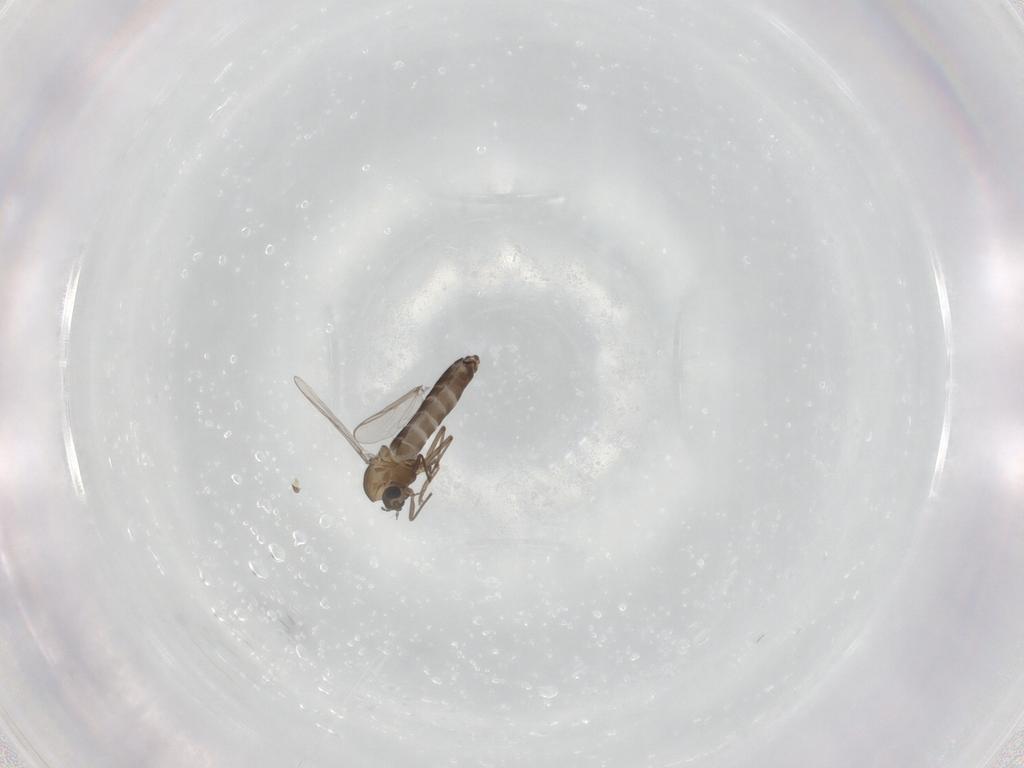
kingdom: Animalia
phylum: Arthropoda
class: Insecta
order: Diptera
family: Chironomidae
